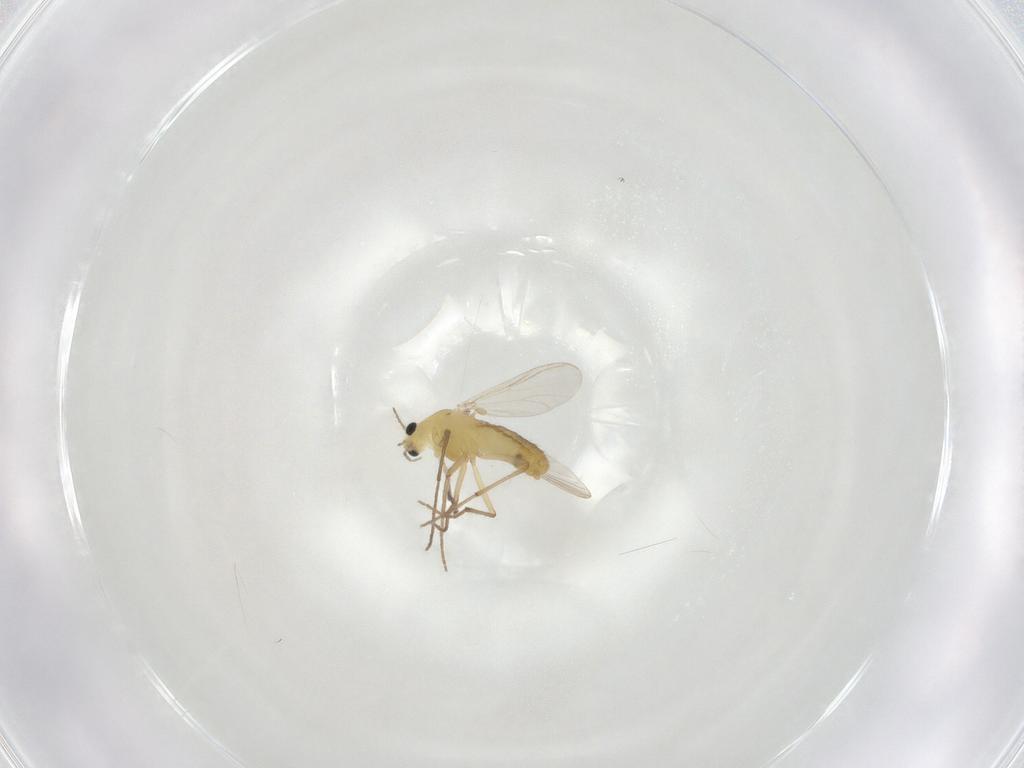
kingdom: Animalia
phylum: Arthropoda
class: Insecta
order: Diptera
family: Chironomidae
